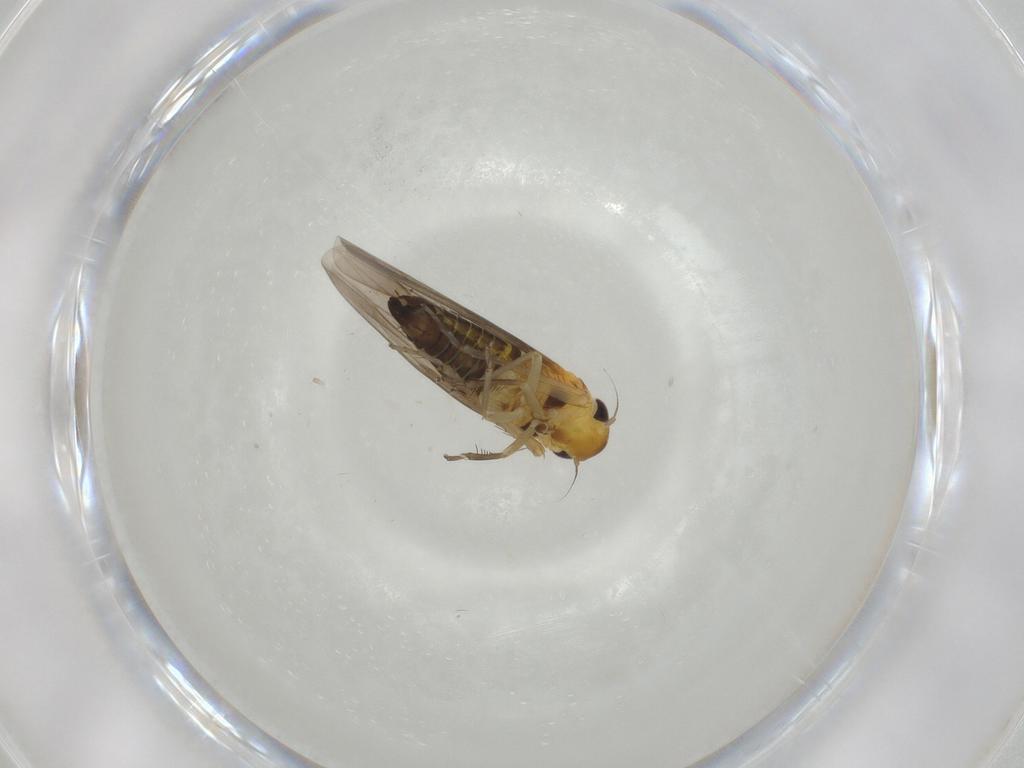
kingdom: Animalia
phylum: Arthropoda
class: Insecta
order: Hemiptera
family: Cicadellidae
